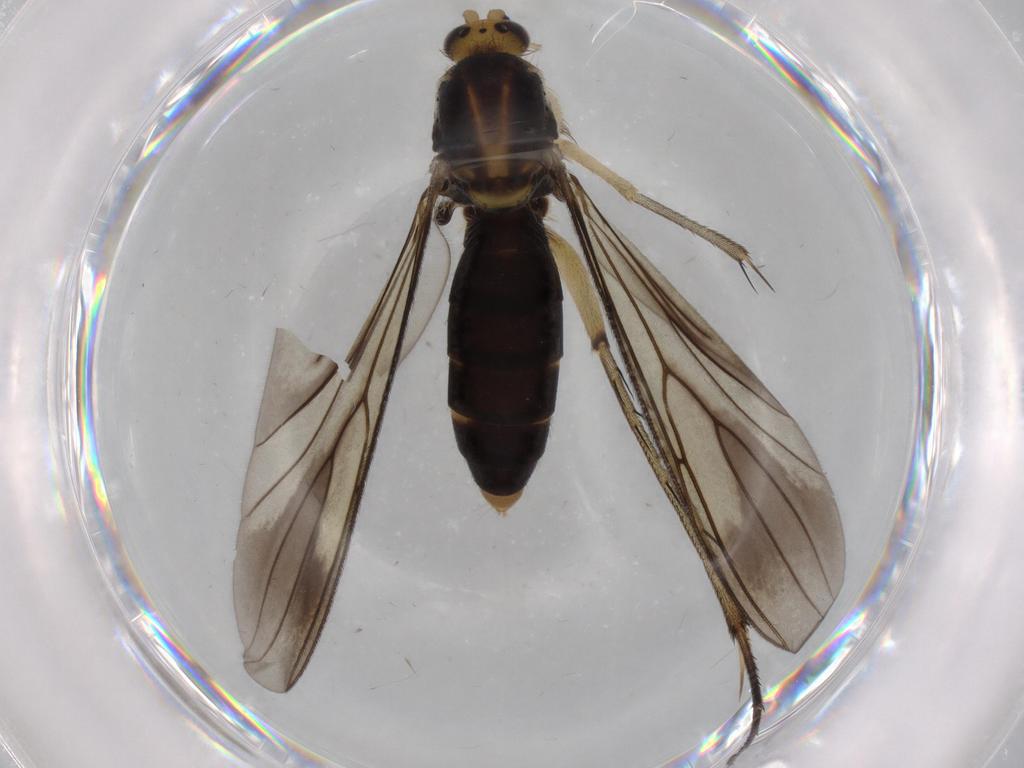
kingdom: Animalia
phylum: Arthropoda
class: Insecta
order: Diptera
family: Mycetophilidae
